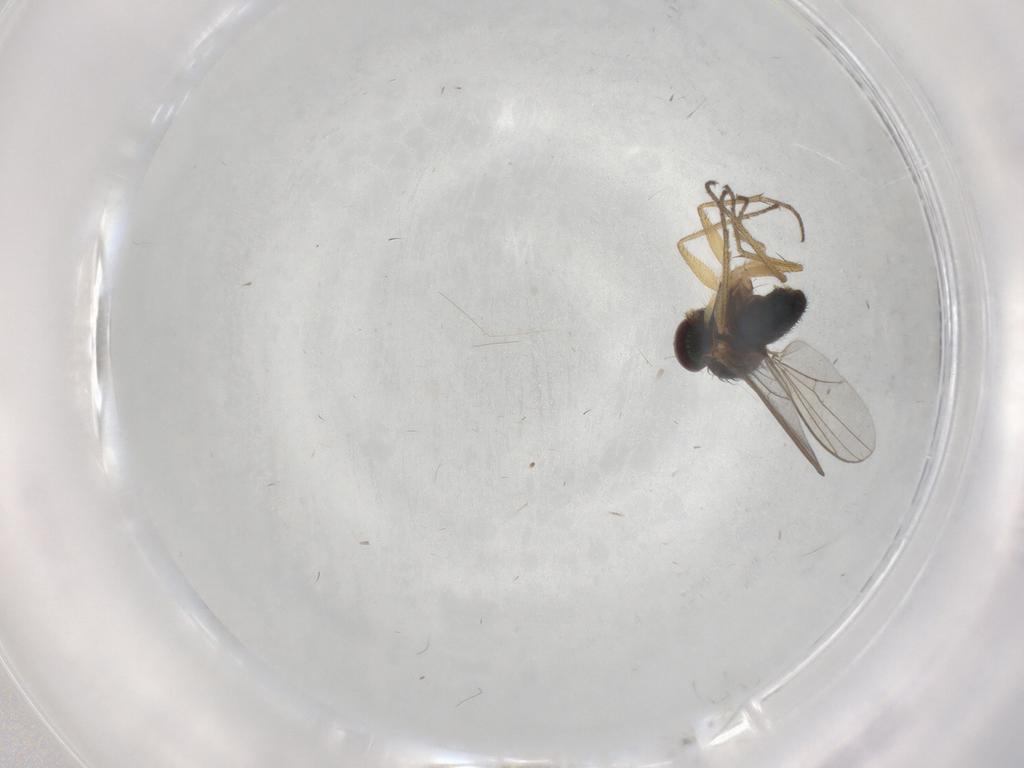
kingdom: Animalia
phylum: Arthropoda
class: Insecta
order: Diptera
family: Dolichopodidae
